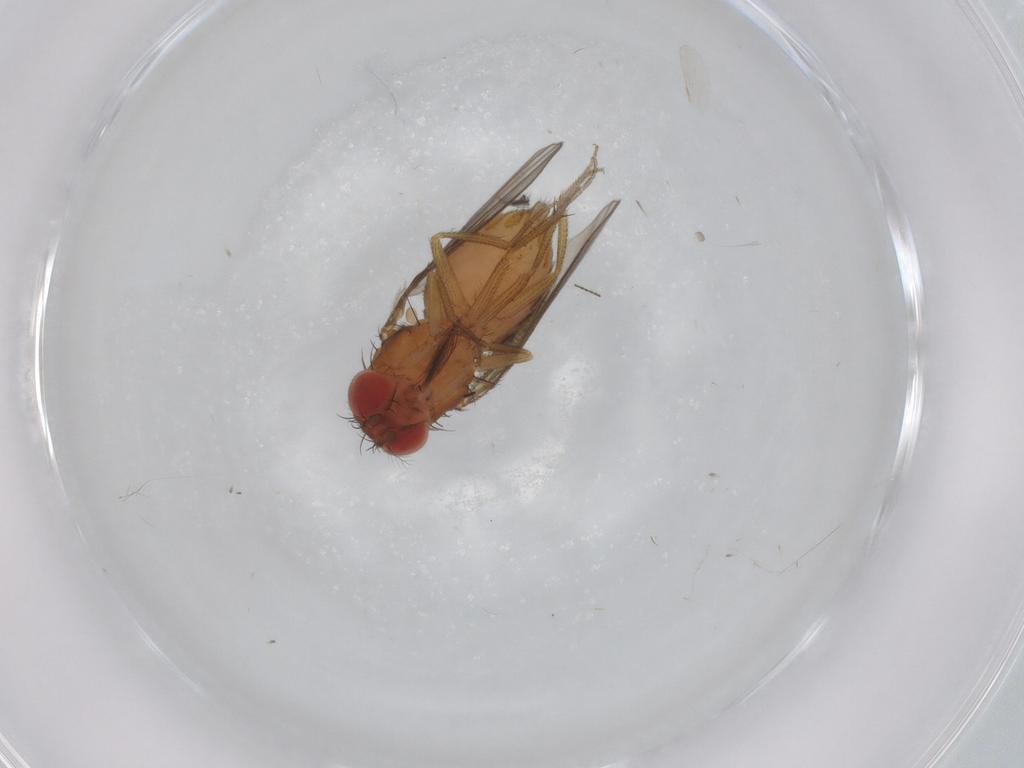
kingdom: Animalia
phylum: Arthropoda
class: Insecta
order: Diptera
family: Drosophilidae
